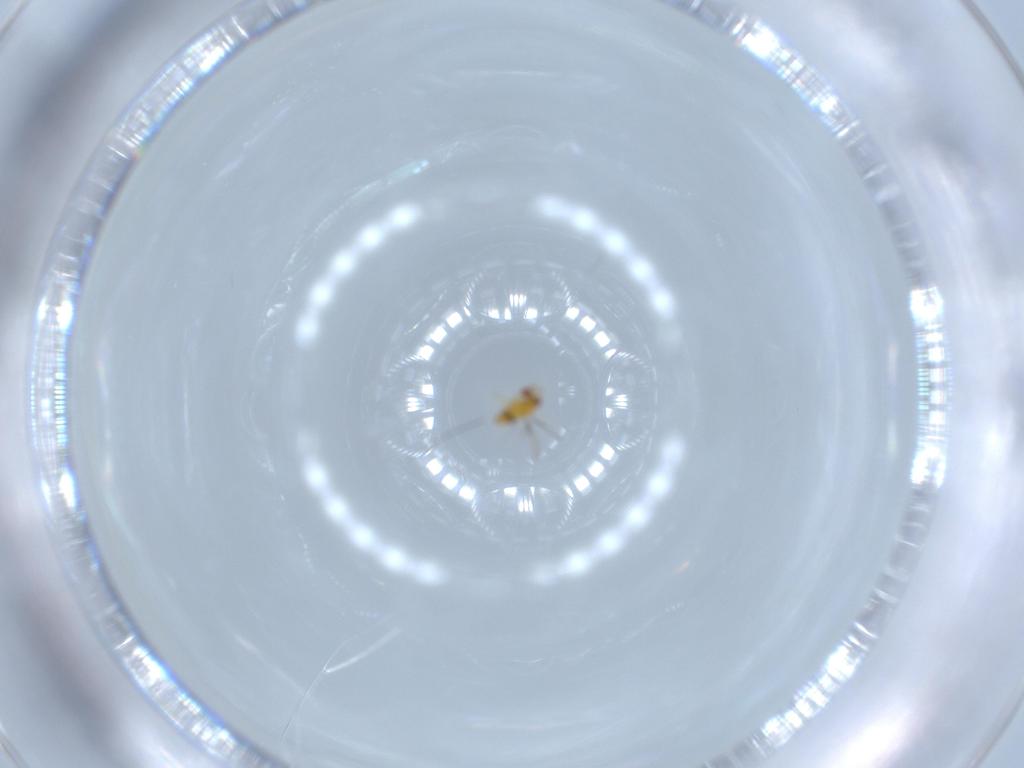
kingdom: Animalia
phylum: Arthropoda
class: Insecta
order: Hymenoptera
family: Trichogrammatidae
